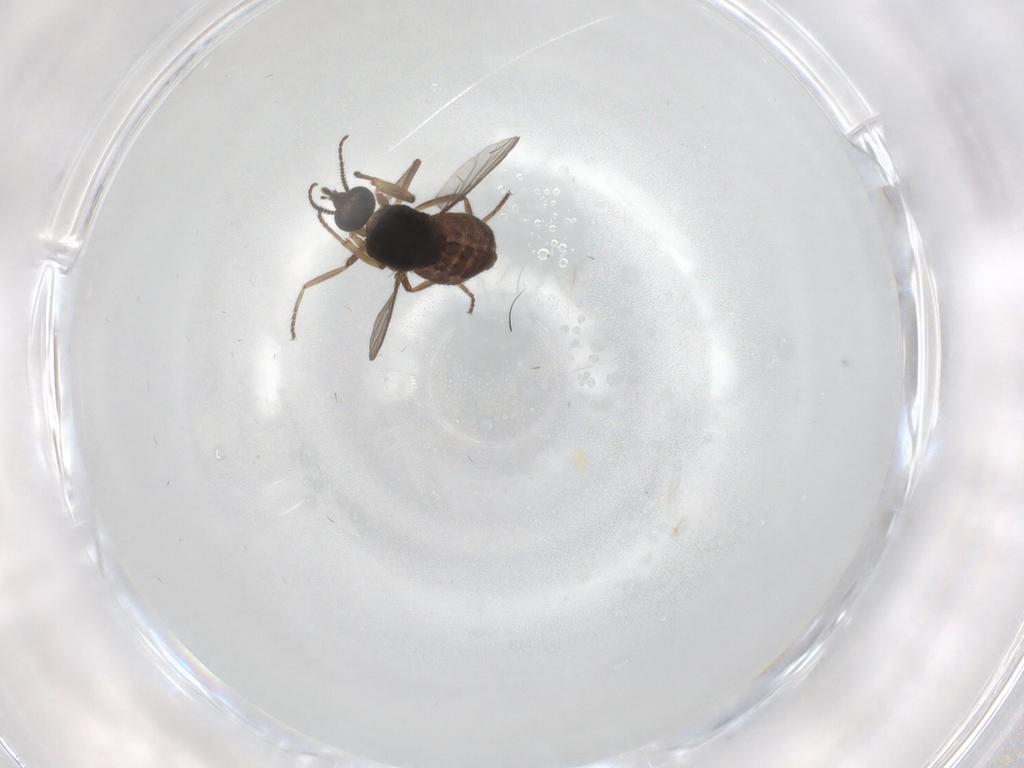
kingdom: Animalia
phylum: Arthropoda
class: Insecta
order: Diptera
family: Ceratopogonidae
